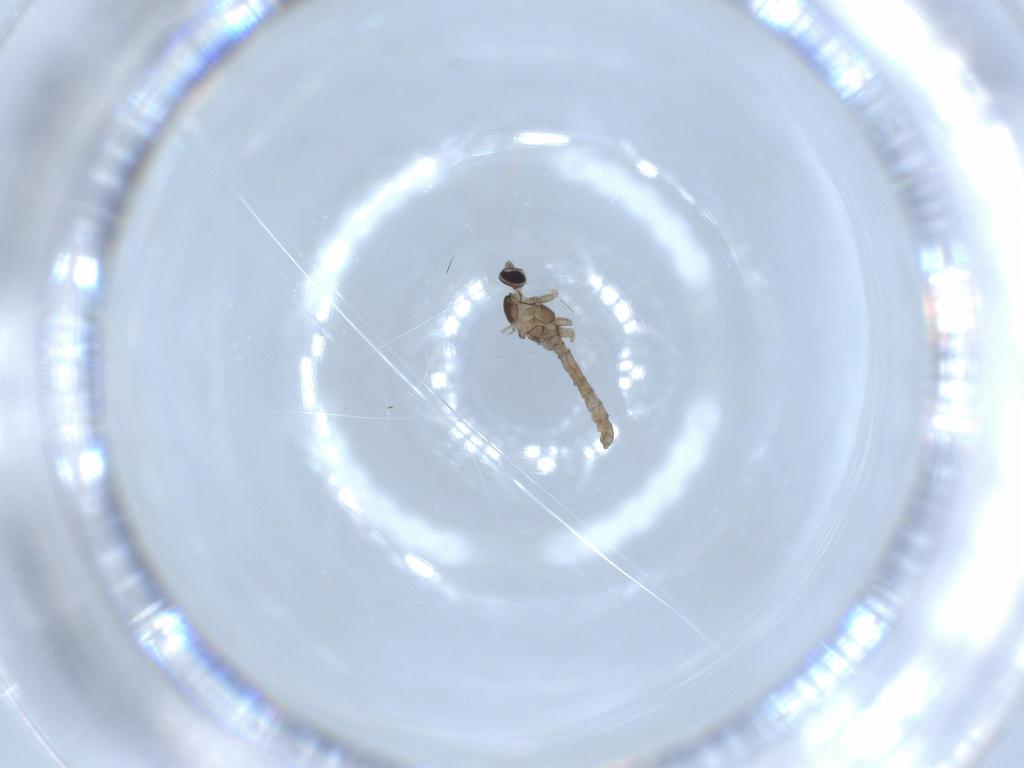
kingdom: Animalia
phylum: Arthropoda
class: Insecta
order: Diptera
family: Cecidomyiidae
